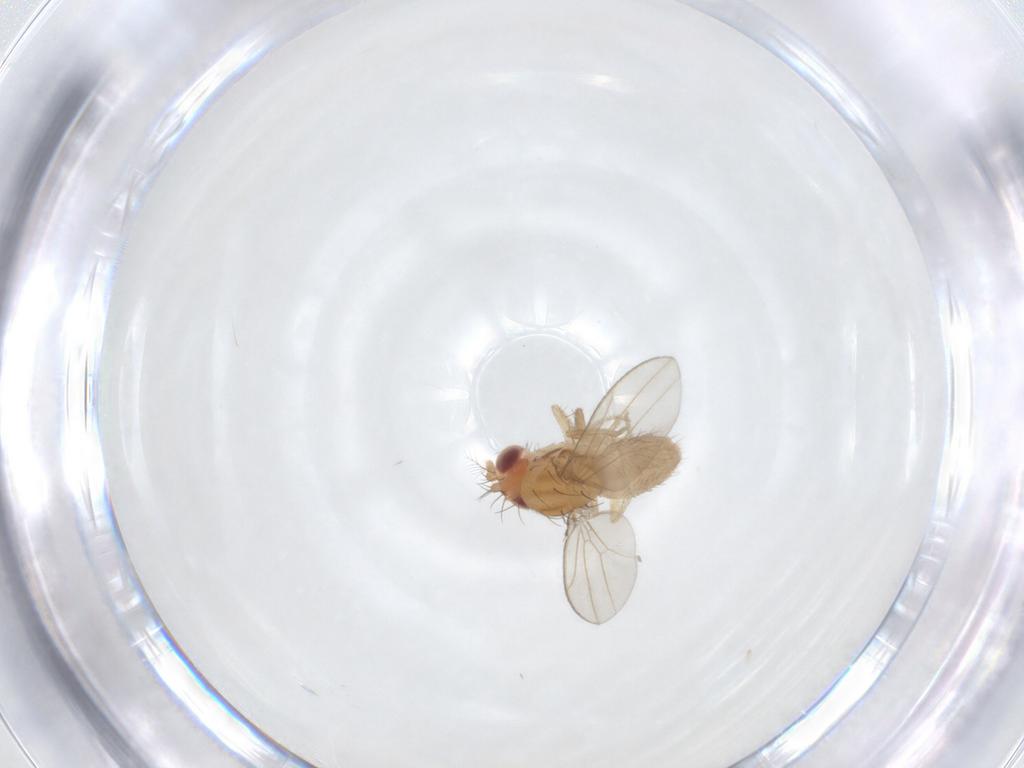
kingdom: Animalia
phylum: Arthropoda
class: Insecta
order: Diptera
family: Drosophilidae
